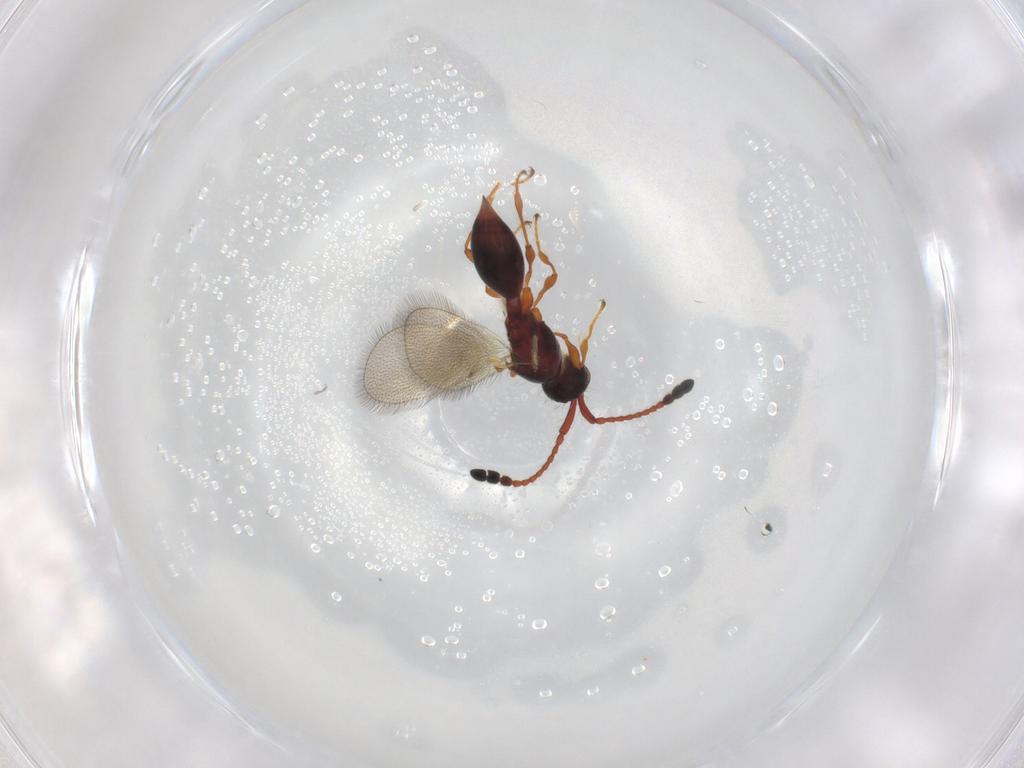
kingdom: Animalia
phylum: Arthropoda
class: Insecta
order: Hymenoptera
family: Diapriidae
